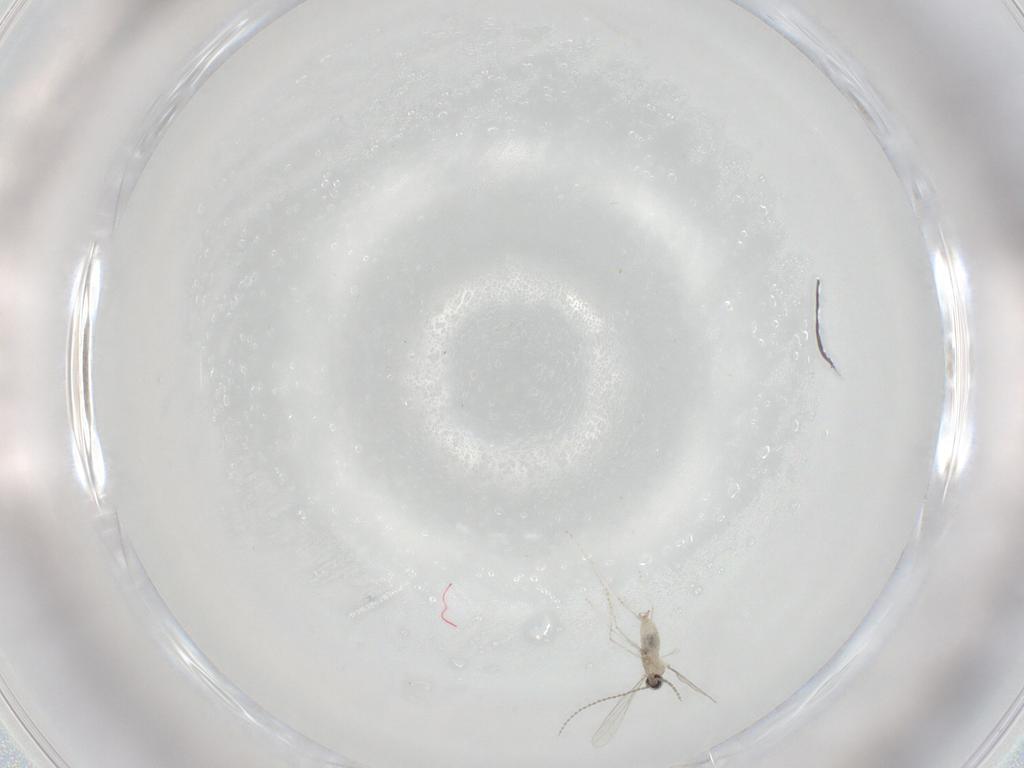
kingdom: Animalia
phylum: Arthropoda
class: Insecta
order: Diptera
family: Cecidomyiidae
